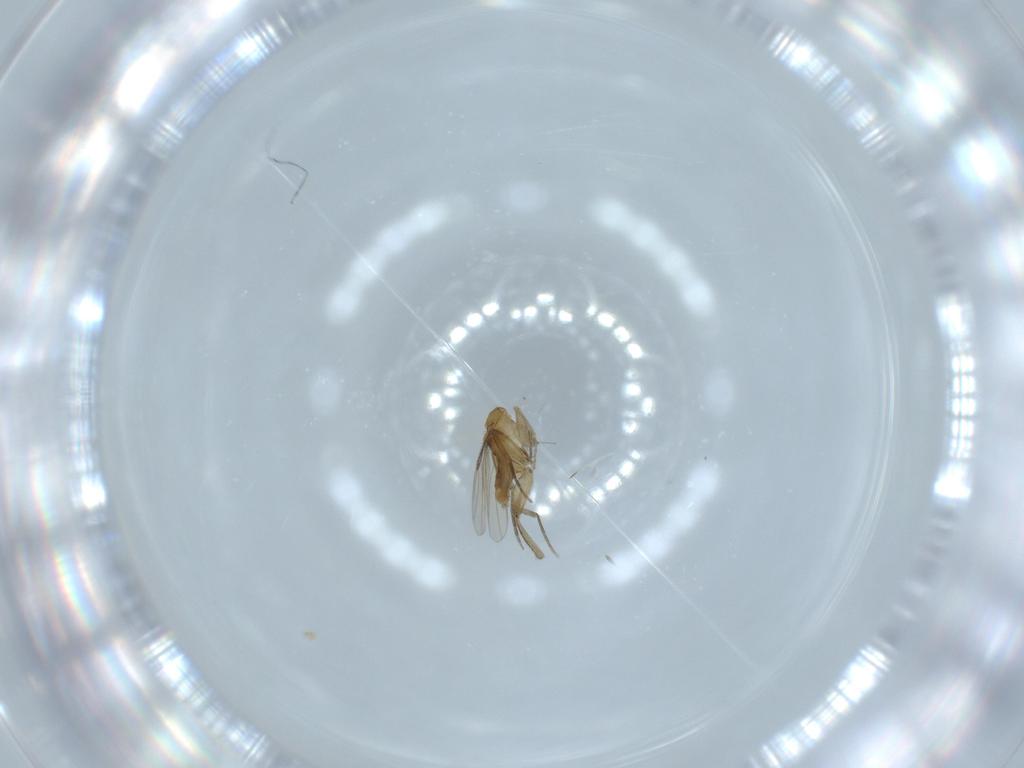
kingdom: Animalia
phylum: Arthropoda
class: Insecta
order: Diptera
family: Phoridae
